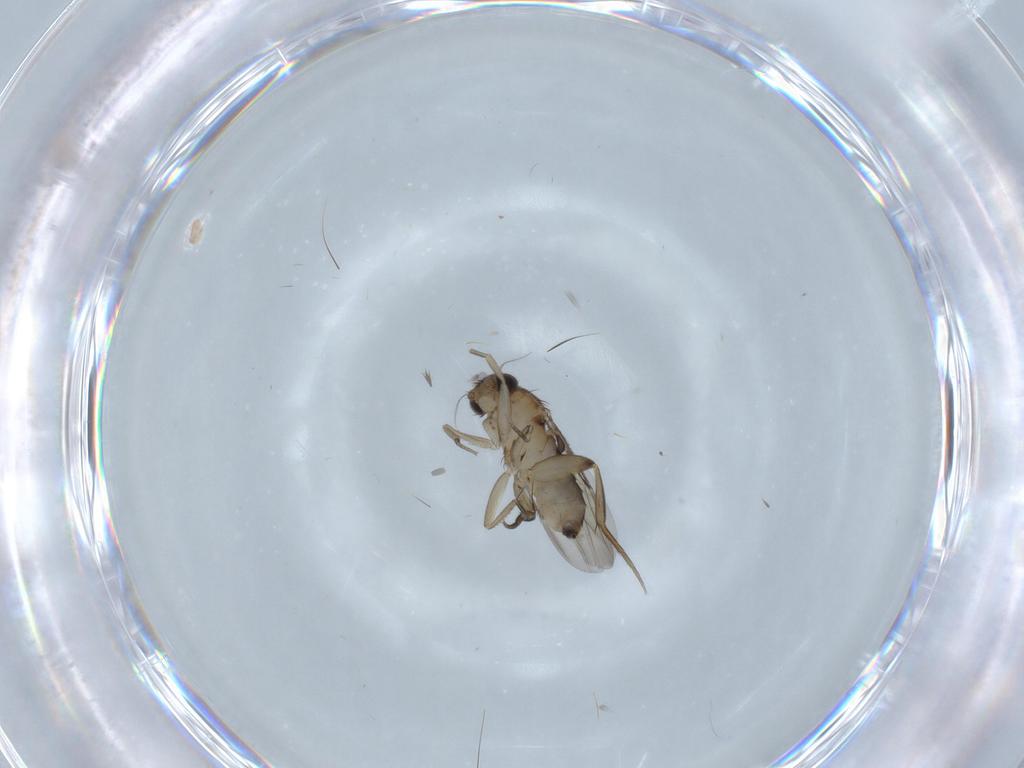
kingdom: Animalia
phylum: Arthropoda
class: Insecta
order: Diptera
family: Phoridae
